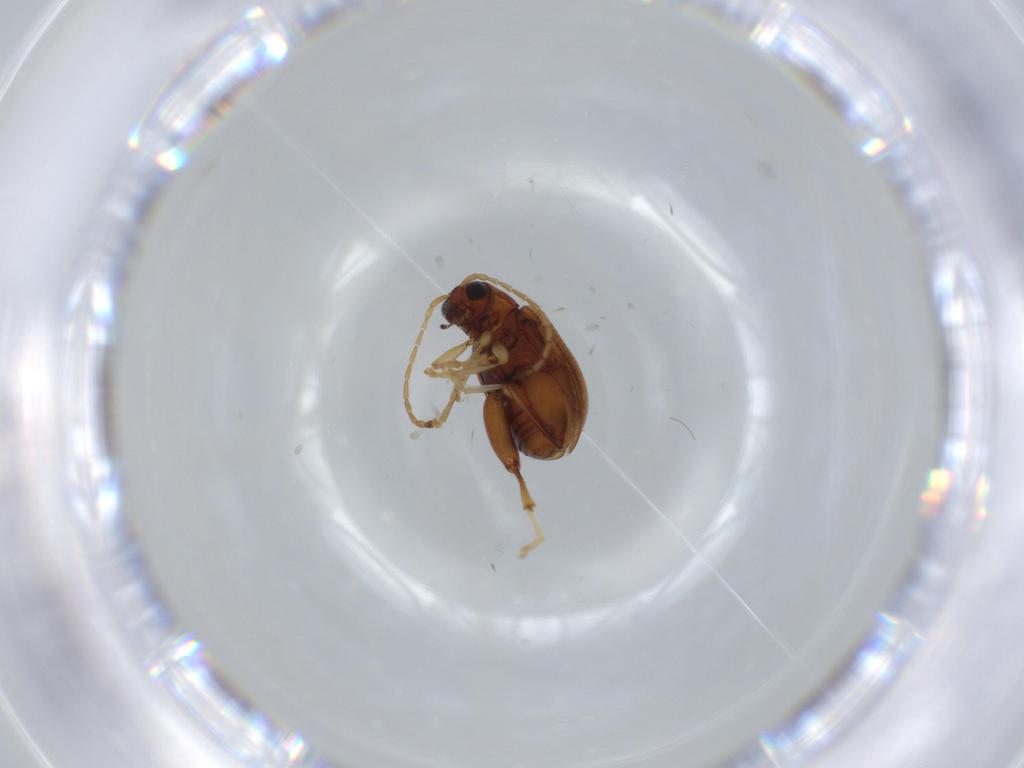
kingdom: Animalia
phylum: Arthropoda
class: Insecta
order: Coleoptera
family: Chrysomelidae
